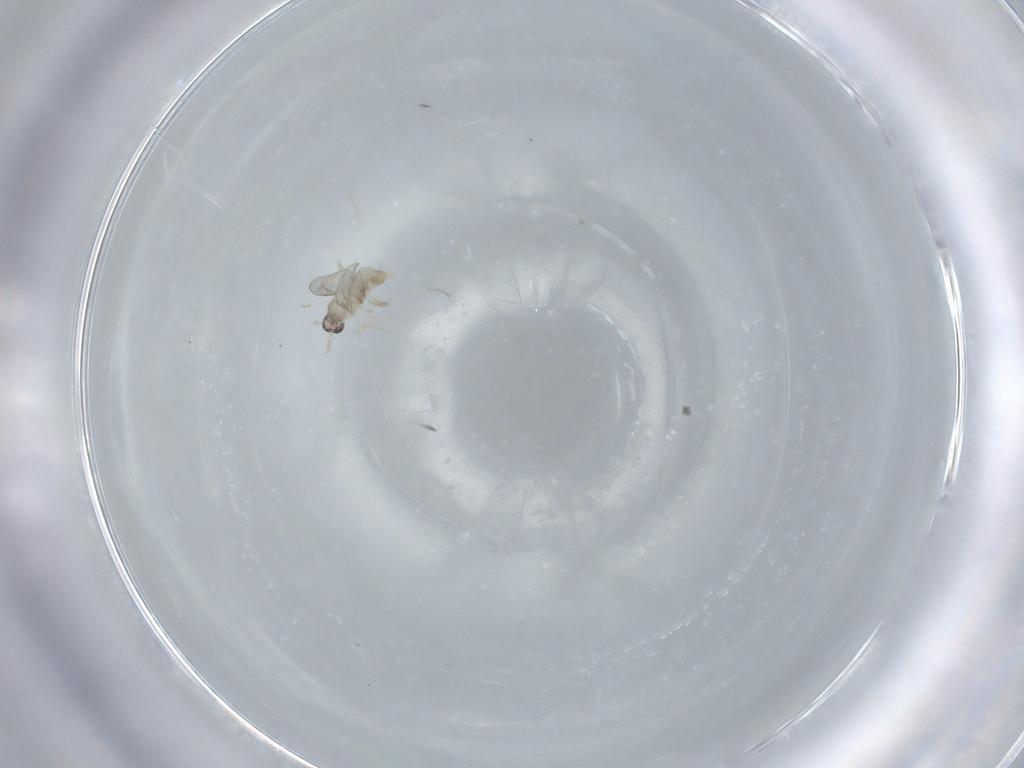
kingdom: Animalia
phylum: Arthropoda
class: Insecta
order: Diptera
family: Cecidomyiidae
